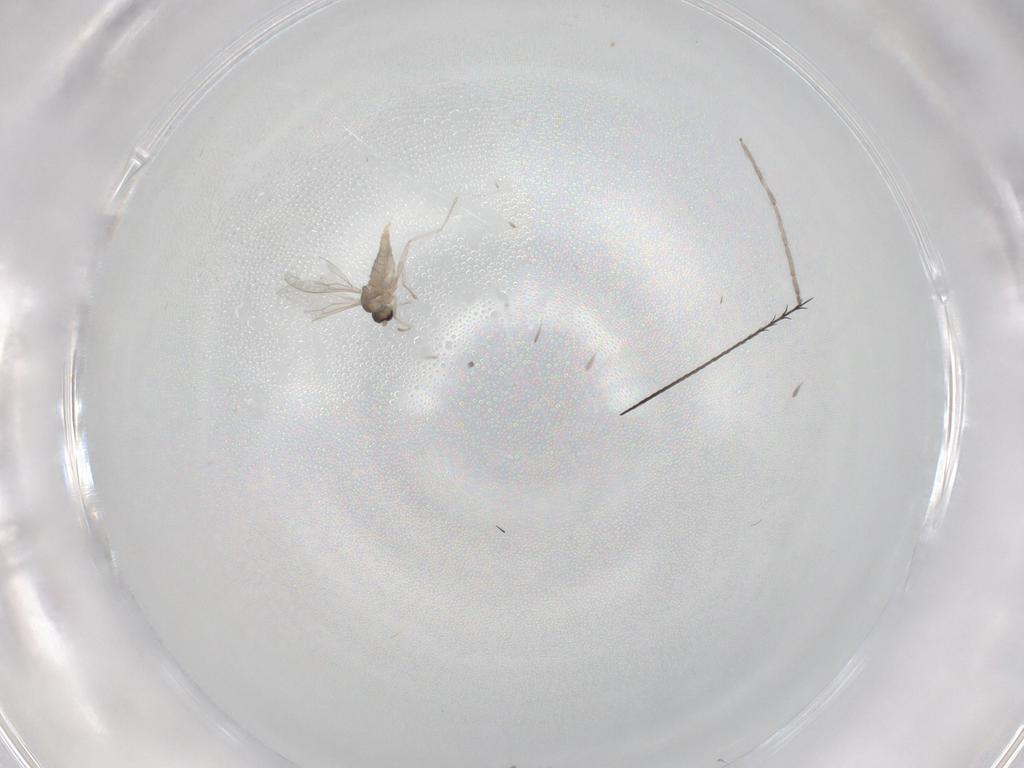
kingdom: Animalia
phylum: Arthropoda
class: Insecta
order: Diptera
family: Cecidomyiidae
